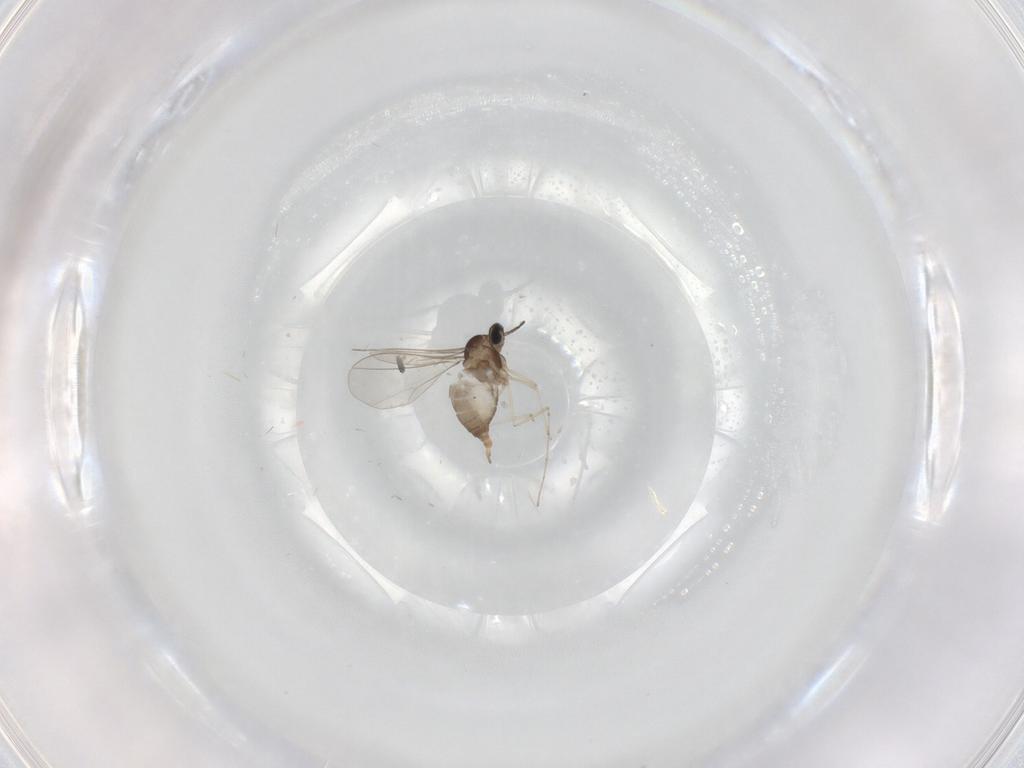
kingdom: Animalia
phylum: Arthropoda
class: Insecta
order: Diptera
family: Cecidomyiidae
